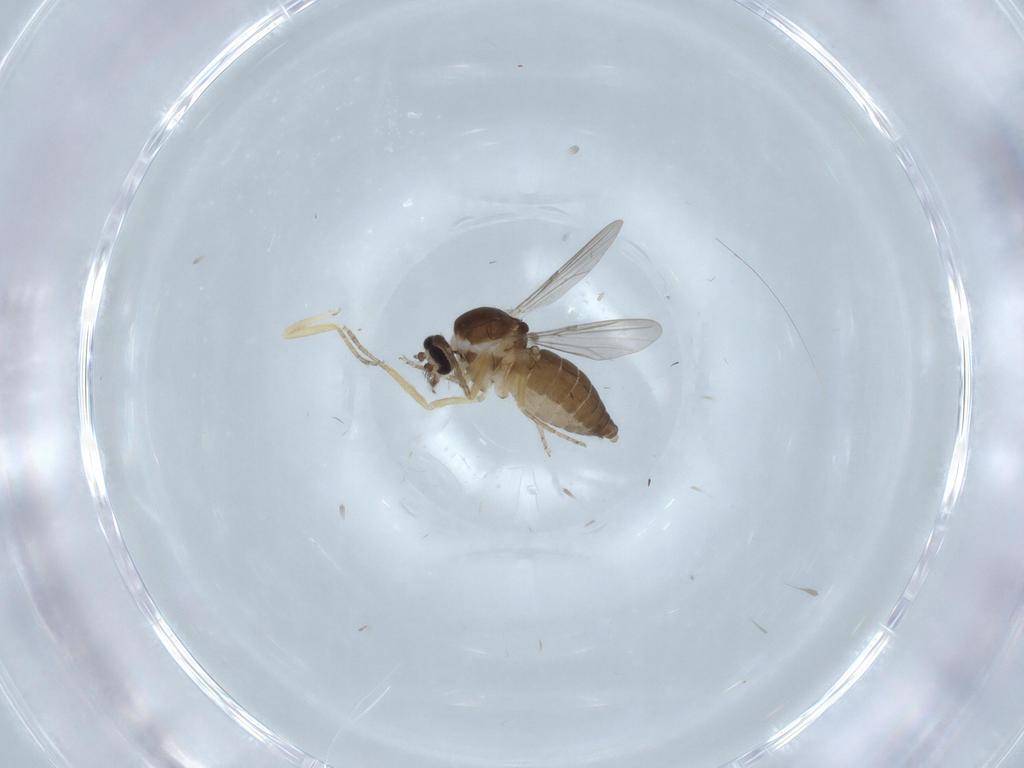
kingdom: Animalia
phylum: Arthropoda
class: Insecta
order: Diptera
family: Ceratopogonidae
